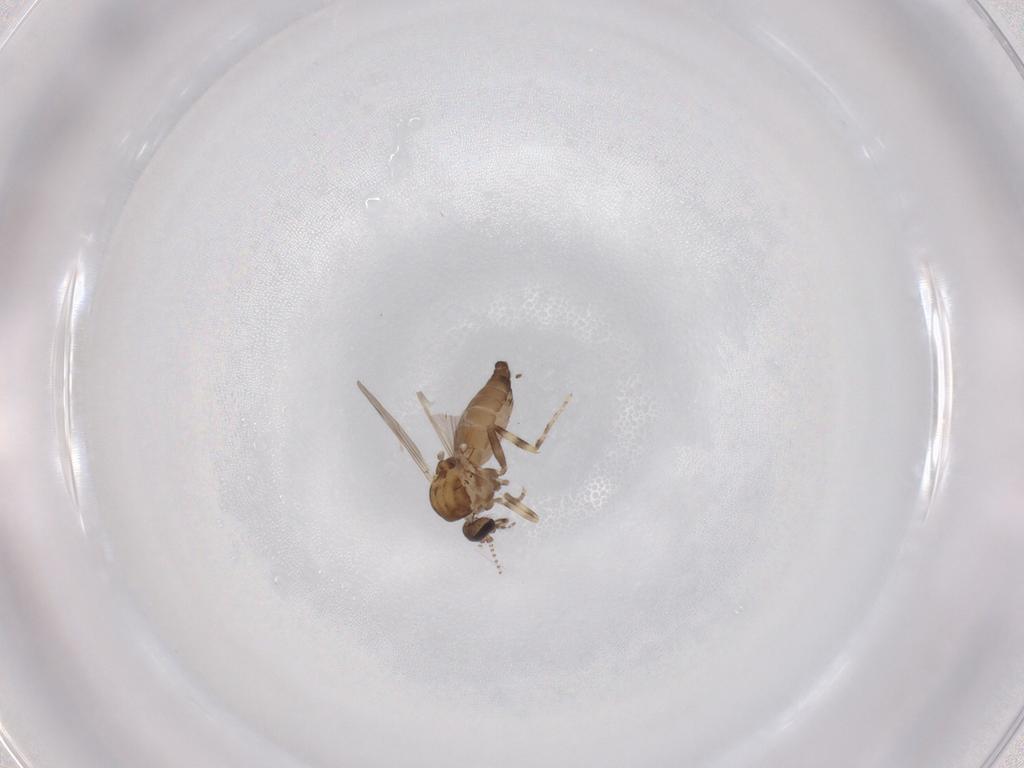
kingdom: Animalia
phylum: Arthropoda
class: Insecta
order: Diptera
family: Ceratopogonidae
